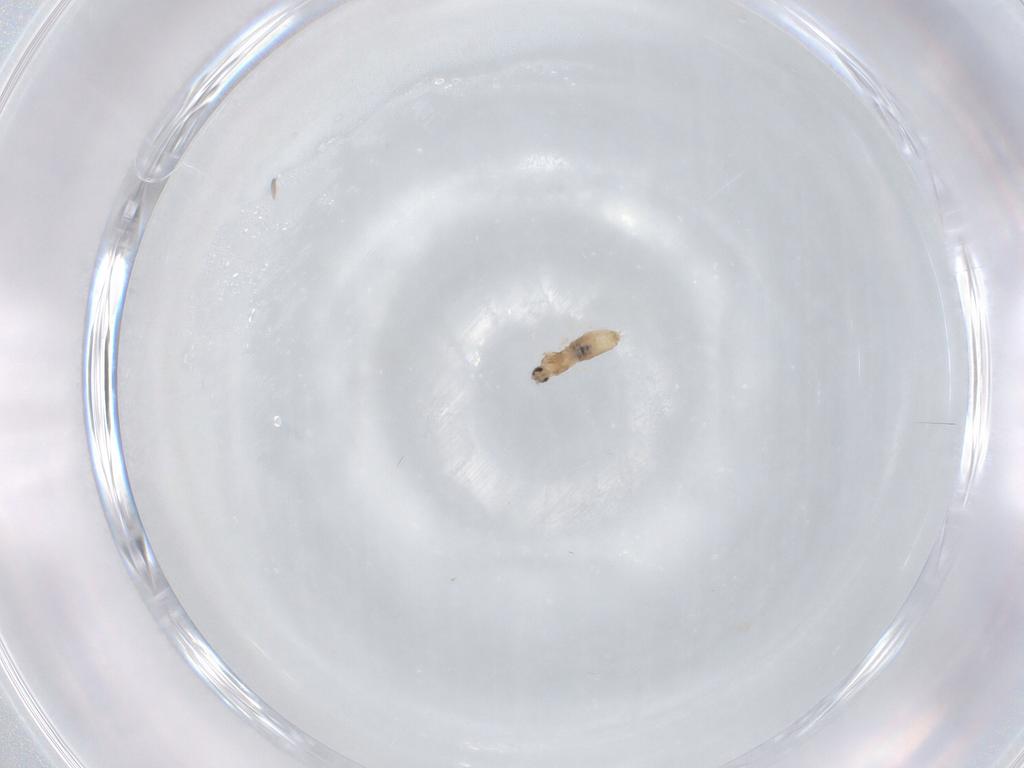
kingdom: Animalia
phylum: Arthropoda
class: Insecta
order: Diptera
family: Cecidomyiidae
